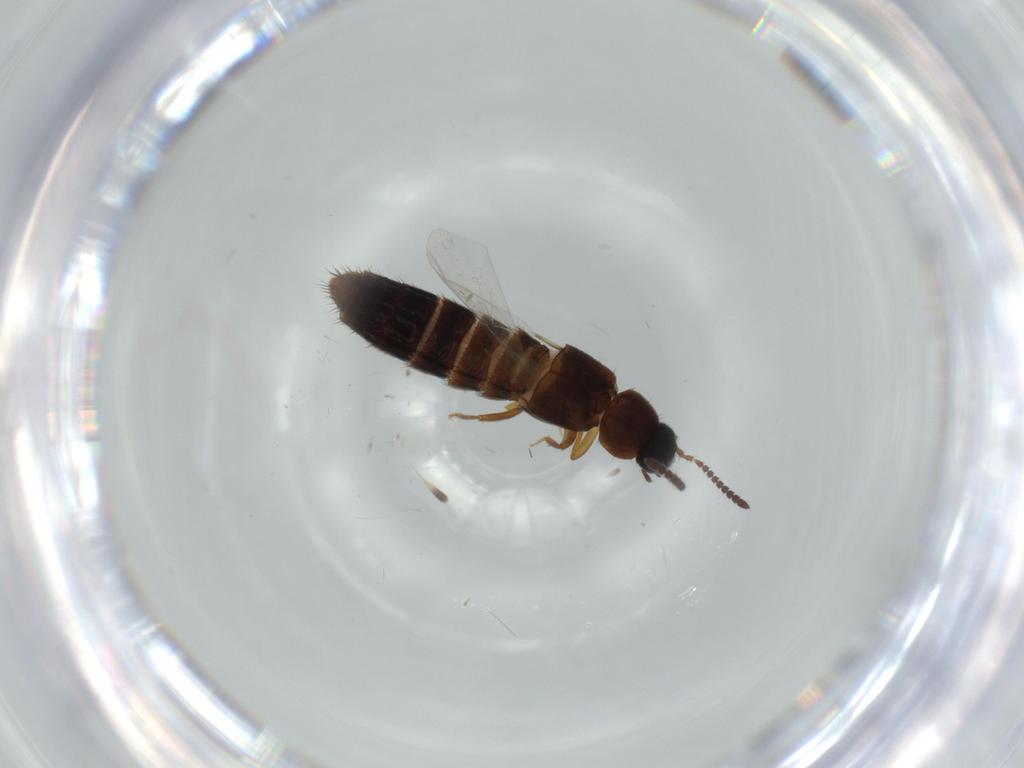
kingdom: Animalia
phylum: Arthropoda
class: Insecta
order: Coleoptera
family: Staphylinidae
